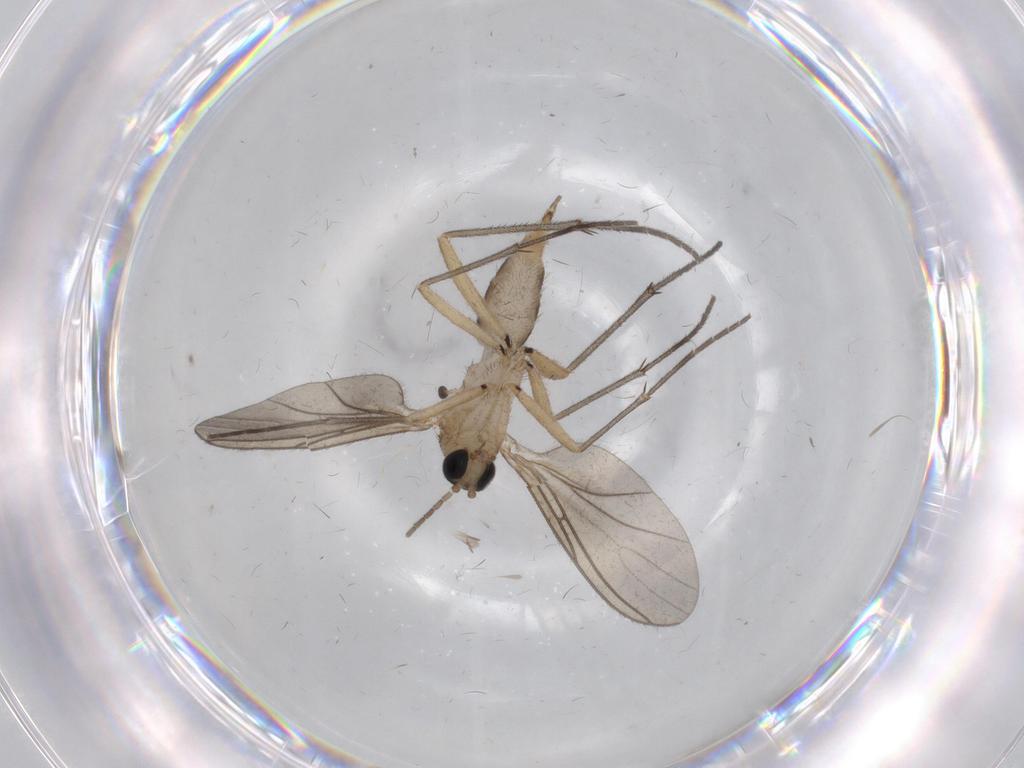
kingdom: Animalia
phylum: Arthropoda
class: Insecta
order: Diptera
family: Sciaridae
